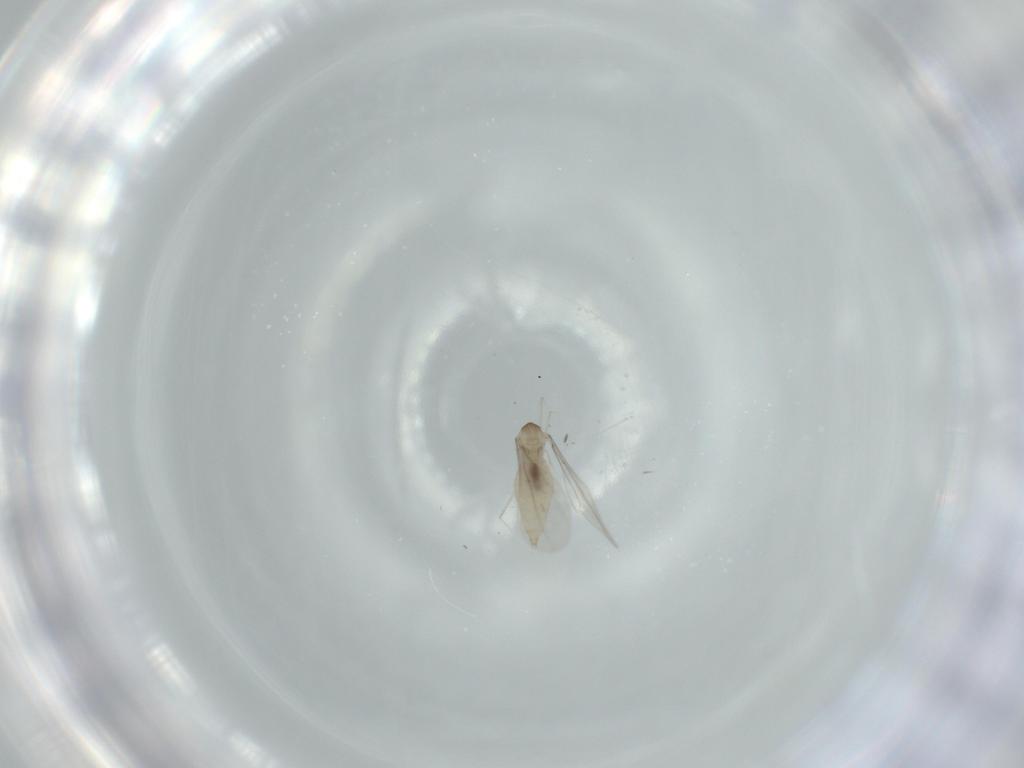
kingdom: Animalia
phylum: Arthropoda
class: Insecta
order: Diptera
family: Cecidomyiidae
